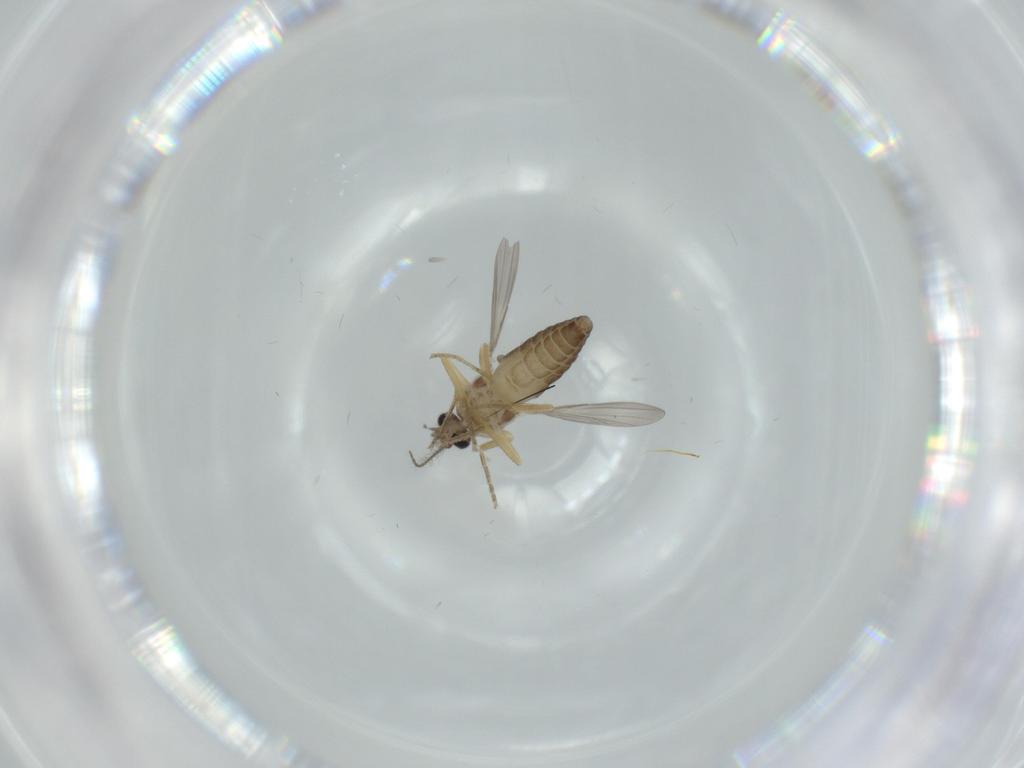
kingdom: Animalia
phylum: Arthropoda
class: Insecta
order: Diptera
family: Ceratopogonidae
